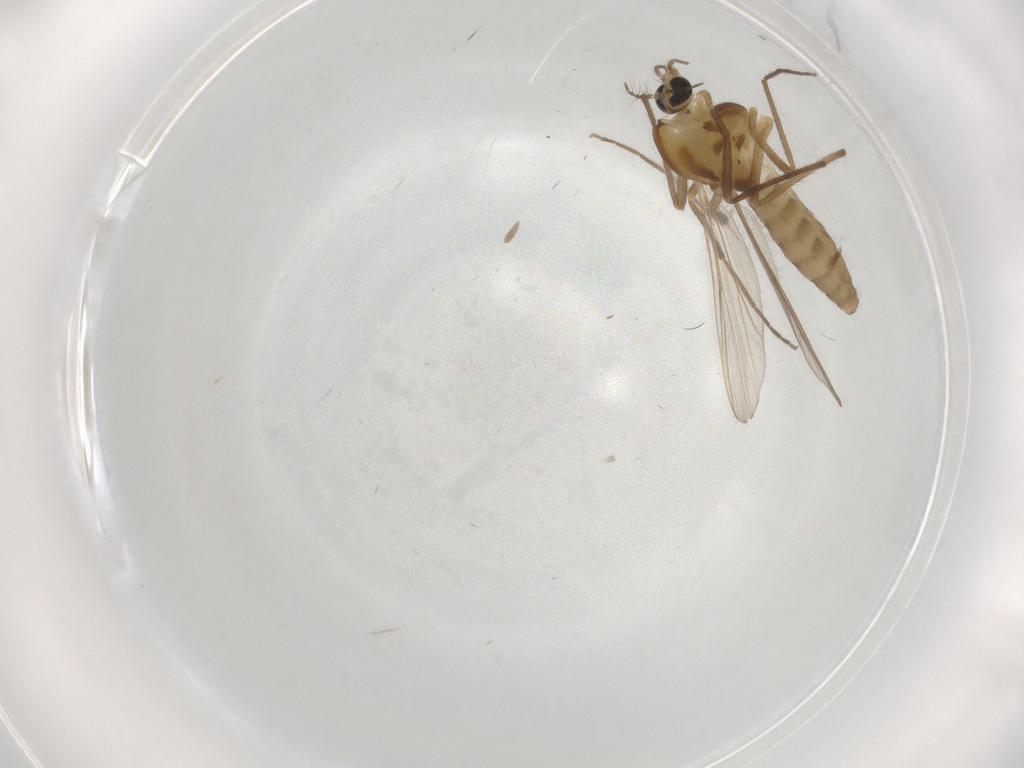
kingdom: Animalia
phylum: Arthropoda
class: Insecta
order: Diptera
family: Chironomidae
